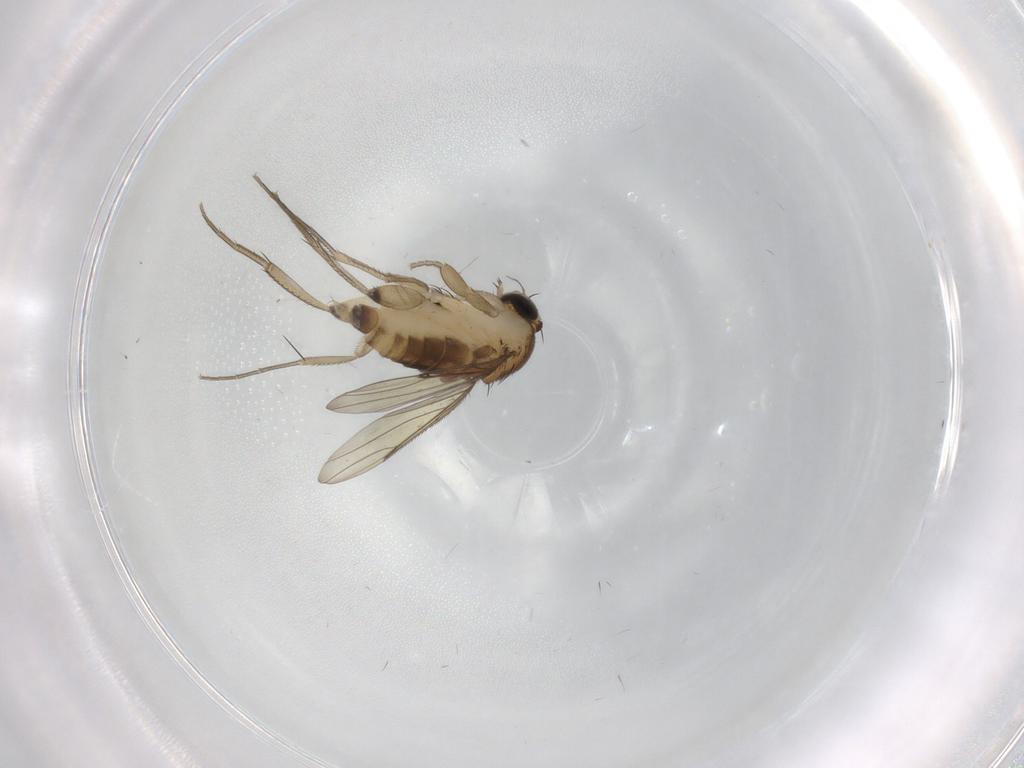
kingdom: Animalia
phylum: Arthropoda
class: Insecta
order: Diptera
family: Phoridae
